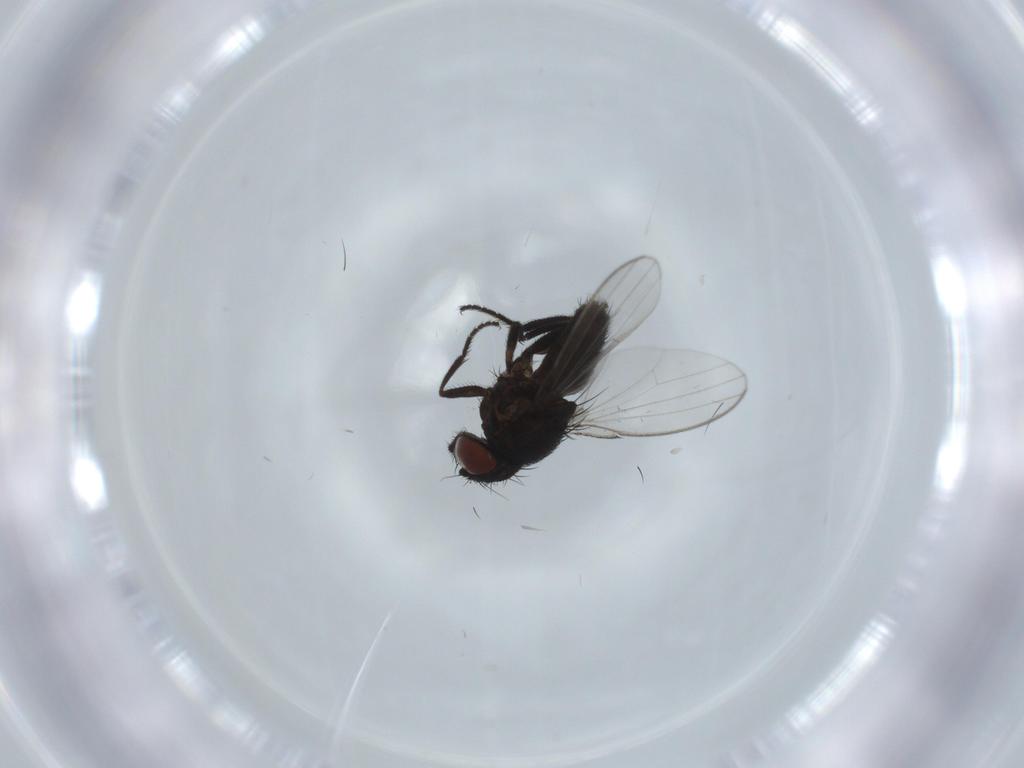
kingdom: Animalia
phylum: Arthropoda
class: Insecta
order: Diptera
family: Milichiidae
